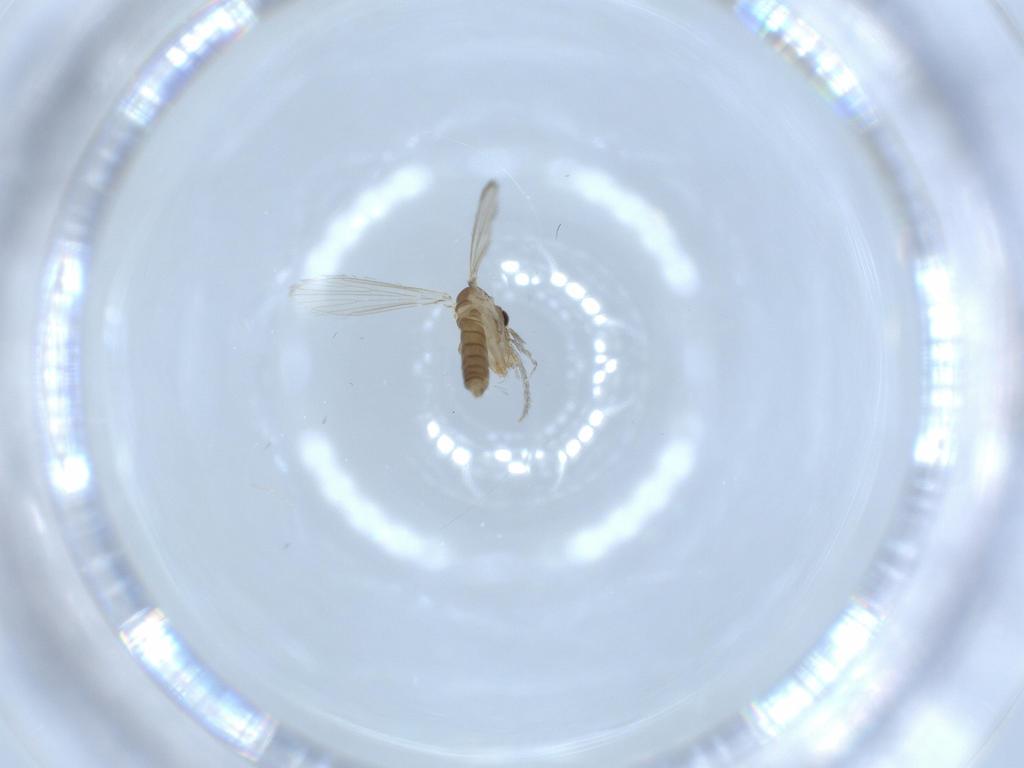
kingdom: Animalia
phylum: Arthropoda
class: Insecta
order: Diptera
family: Psychodidae
